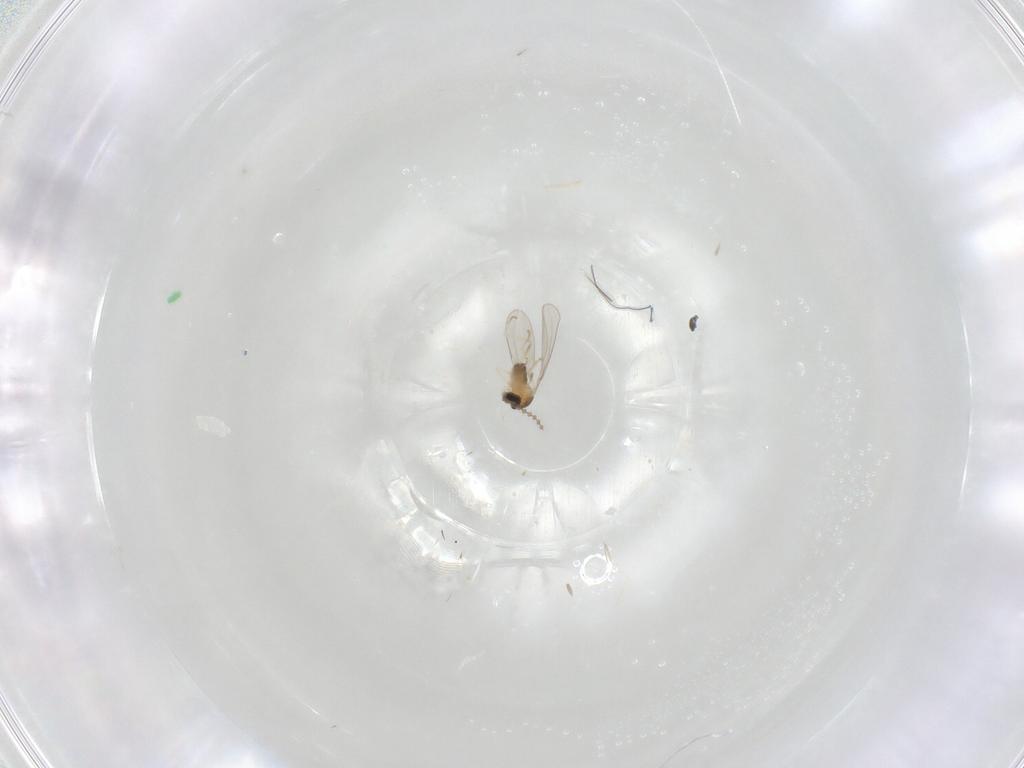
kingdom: Animalia
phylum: Arthropoda
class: Insecta
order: Diptera
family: Cecidomyiidae
